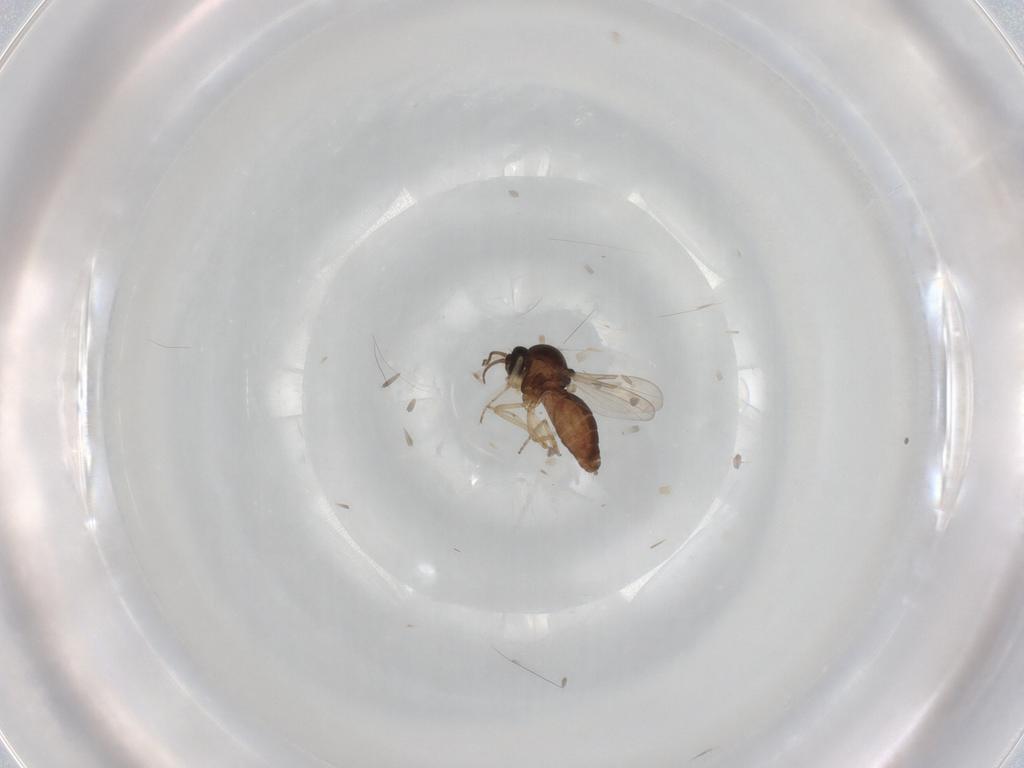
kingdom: Animalia
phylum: Arthropoda
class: Insecta
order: Diptera
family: Ceratopogonidae
